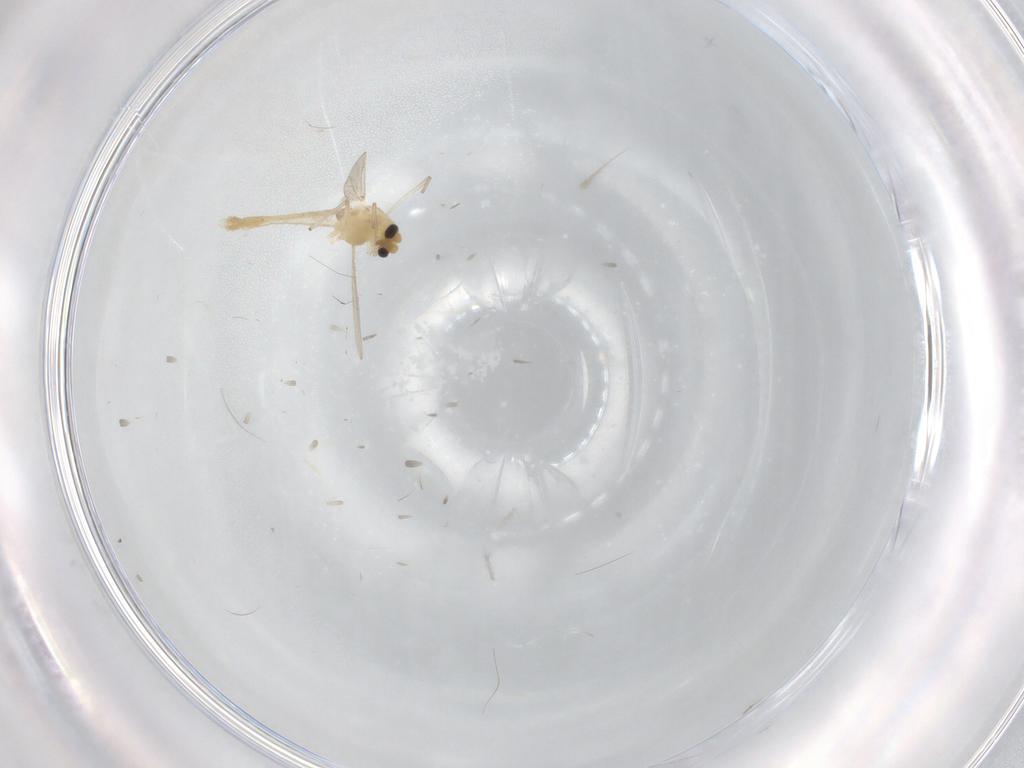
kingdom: Animalia
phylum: Arthropoda
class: Insecta
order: Diptera
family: Chironomidae
